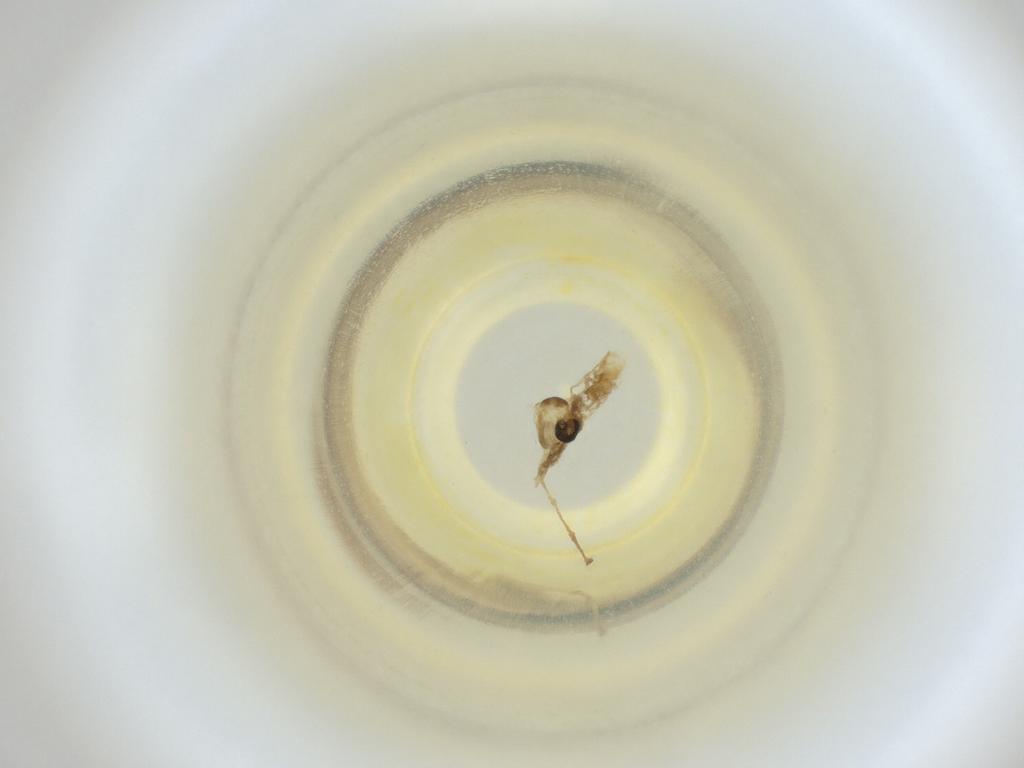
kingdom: Animalia
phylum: Arthropoda
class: Insecta
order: Diptera
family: Cecidomyiidae
